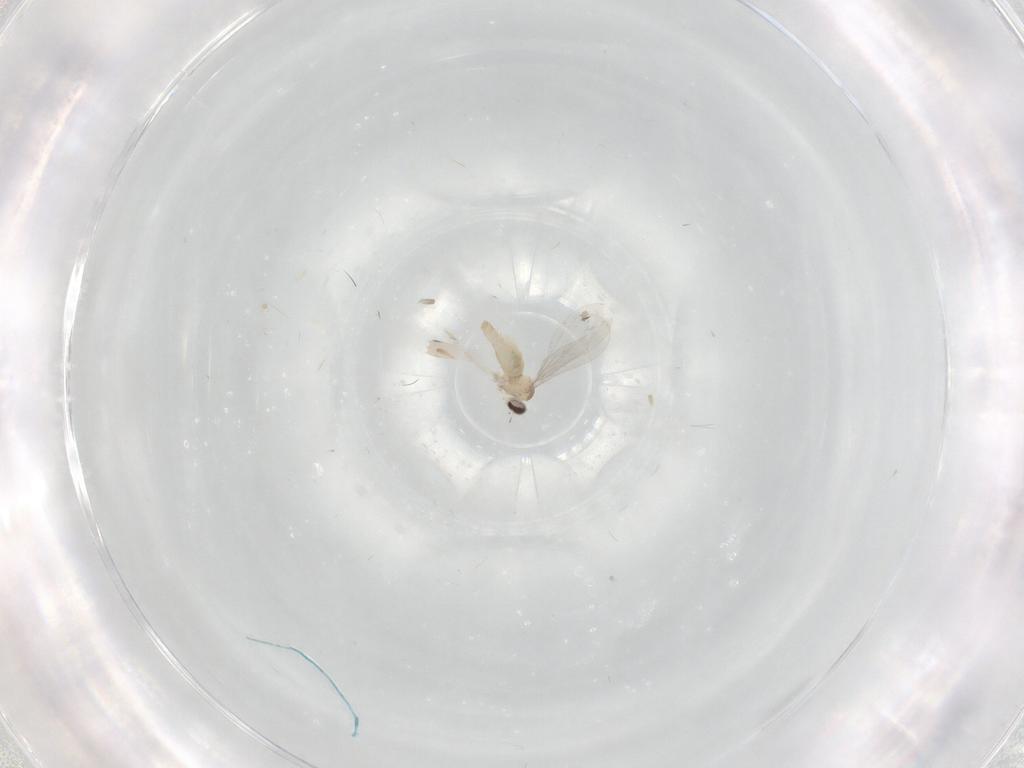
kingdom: Animalia
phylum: Arthropoda
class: Insecta
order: Diptera
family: Cecidomyiidae
